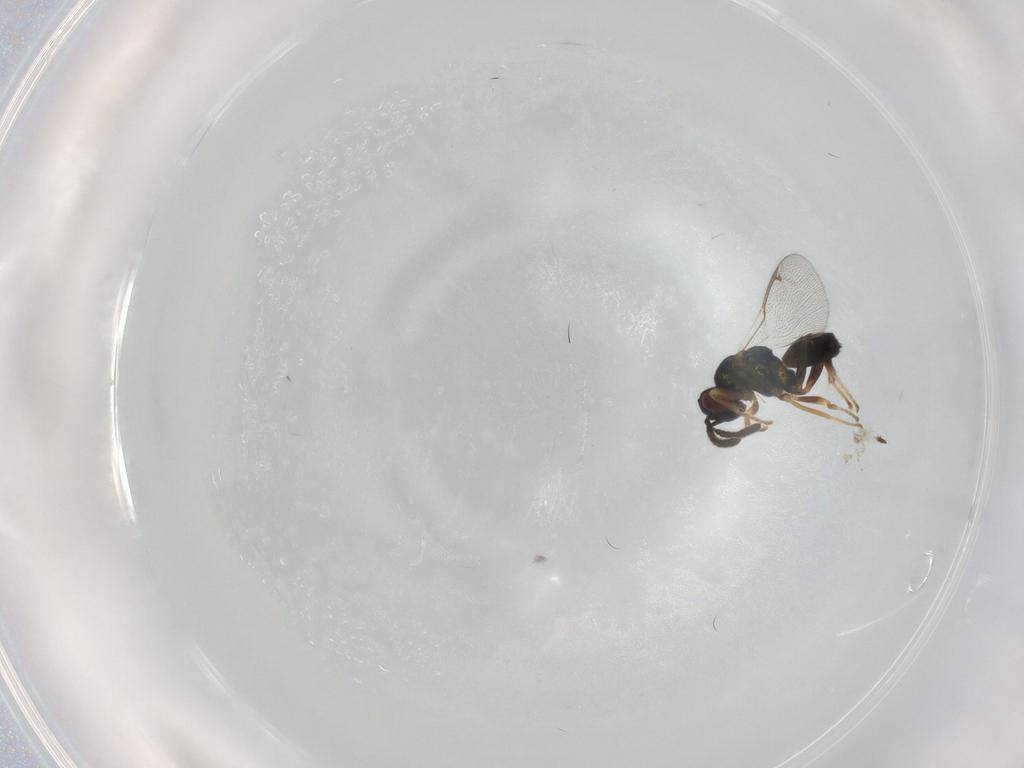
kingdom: Animalia
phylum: Arthropoda
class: Insecta
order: Hymenoptera
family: Torymidae
